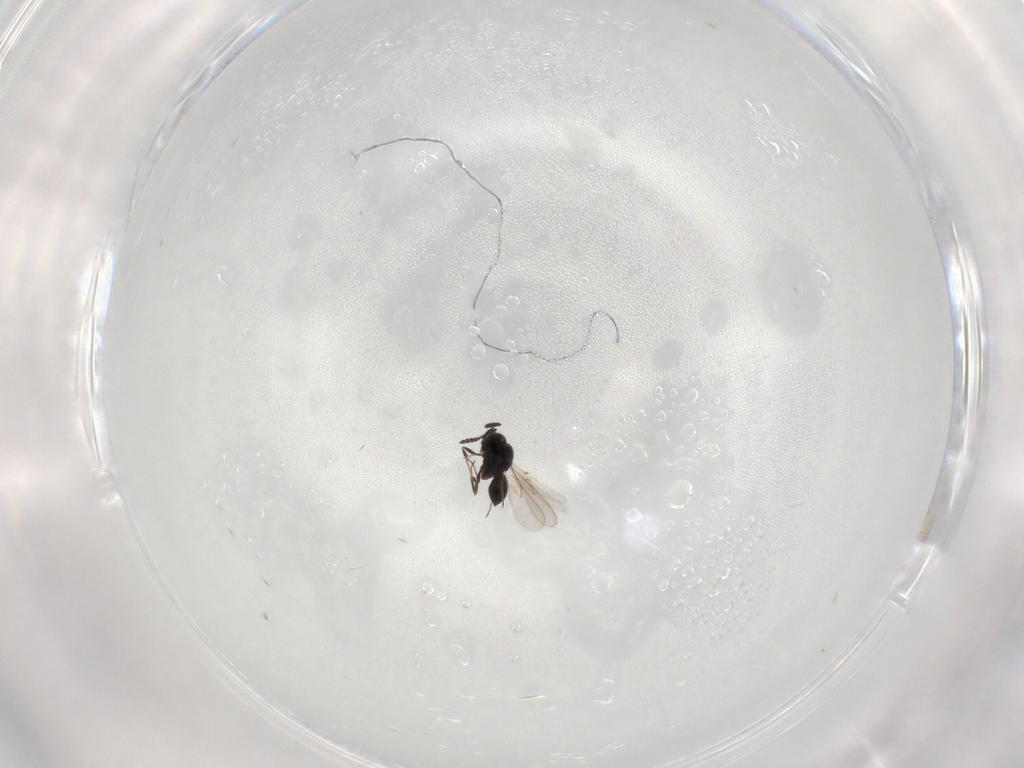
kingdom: Animalia
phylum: Arthropoda
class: Insecta
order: Hymenoptera
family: Scelionidae
